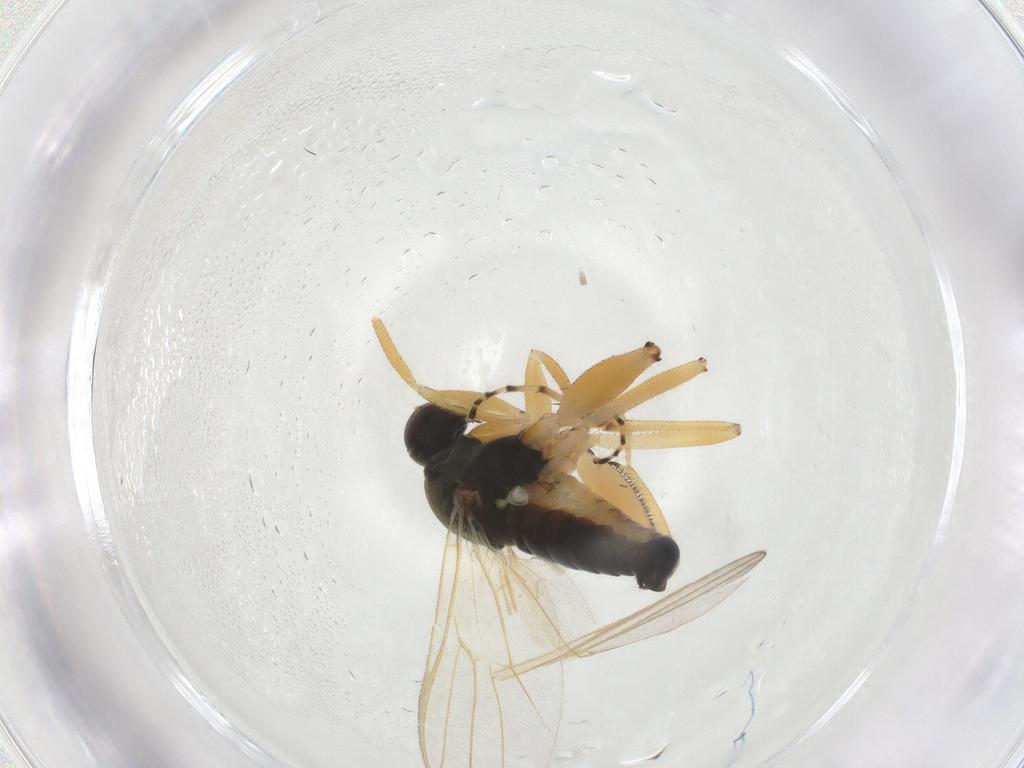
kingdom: Animalia
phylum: Arthropoda
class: Insecta
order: Diptera
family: Chironomidae
